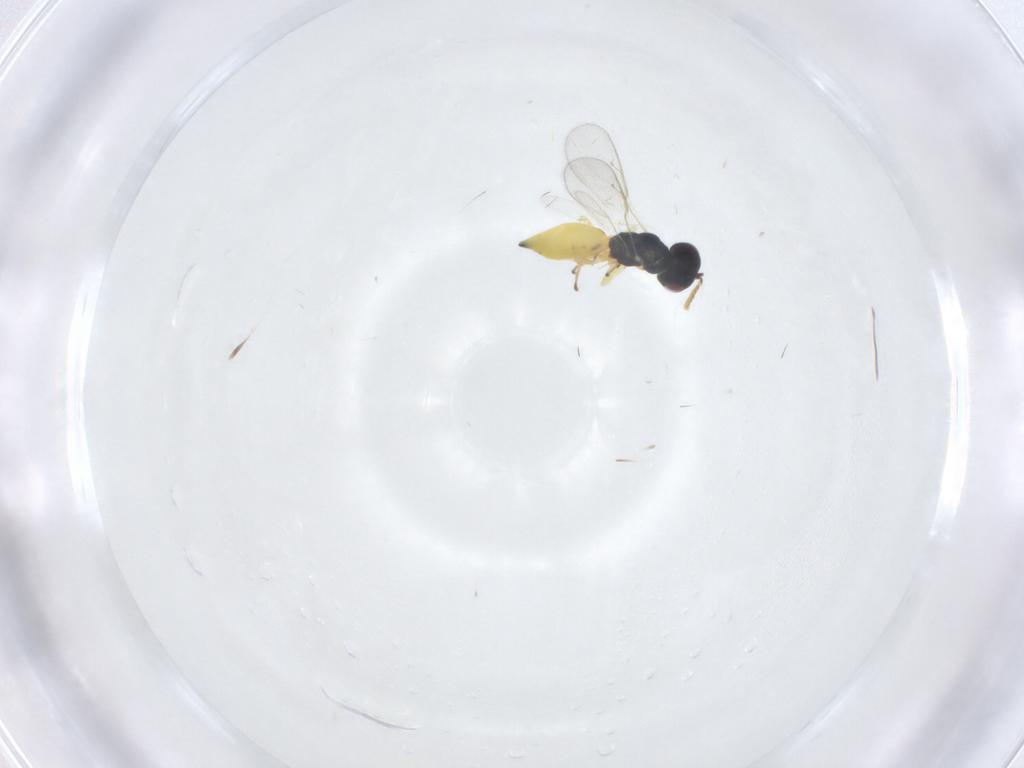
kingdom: Animalia
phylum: Arthropoda
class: Insecta
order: Hymenoptera
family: Pteromalidae
